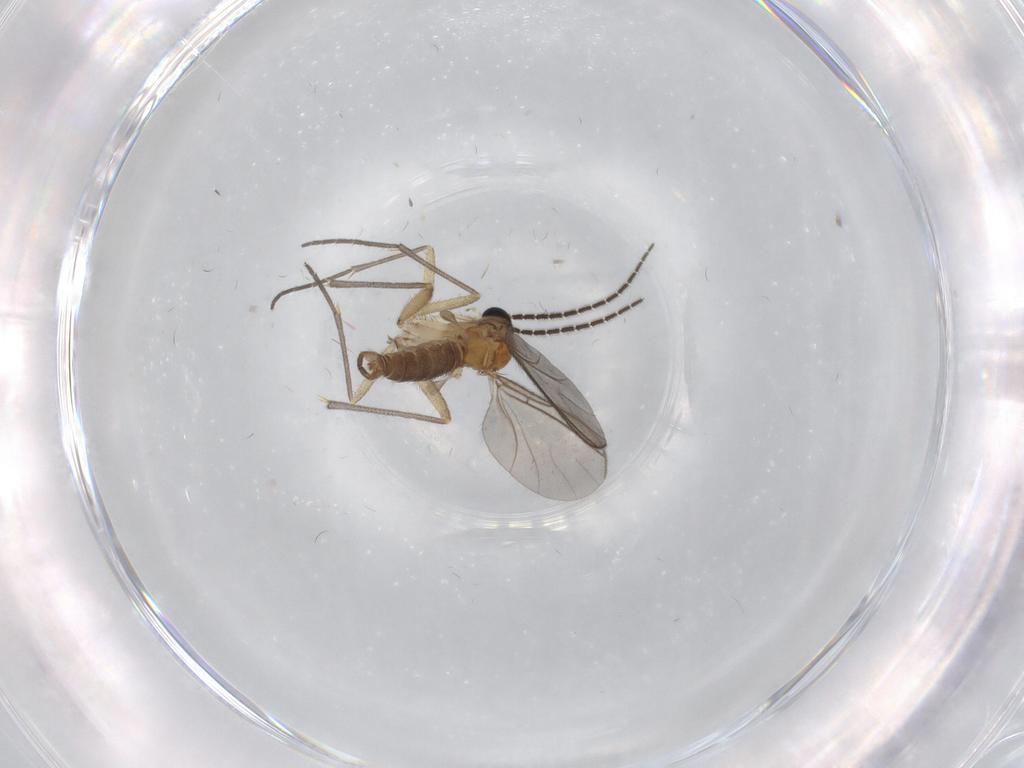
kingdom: Animalia
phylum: Arthropoda
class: Insecta
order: Diptera
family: Sciaridae
